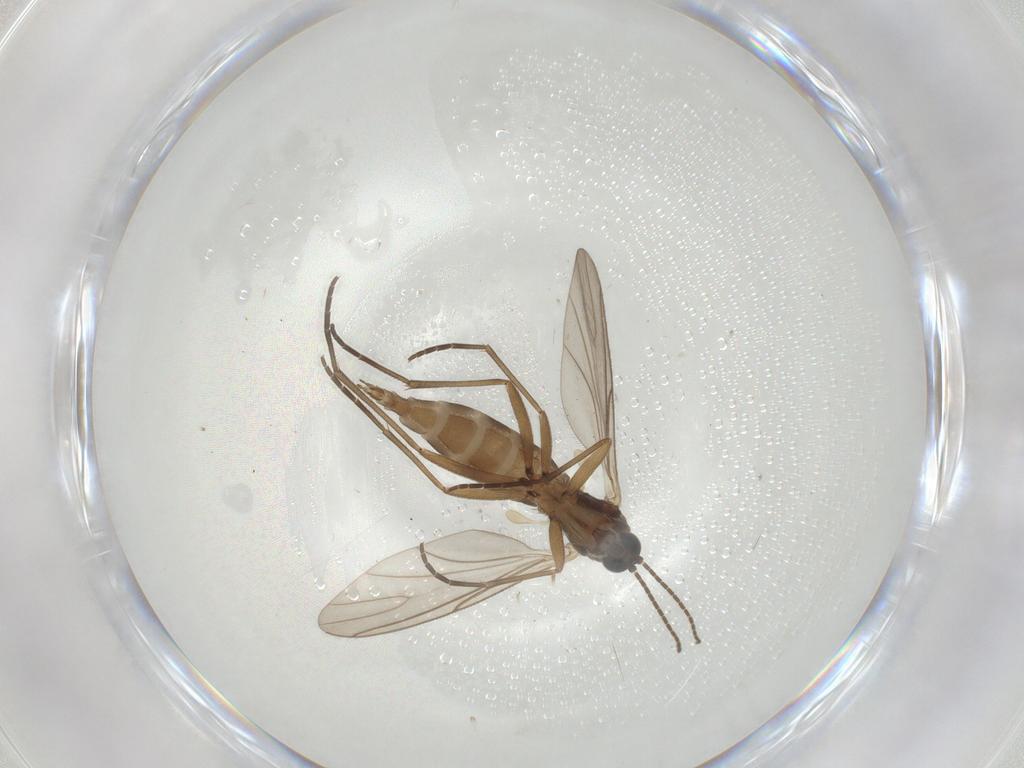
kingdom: Animalia
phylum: Arthropoda
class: Insecta
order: Diptera
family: Sciaridae
